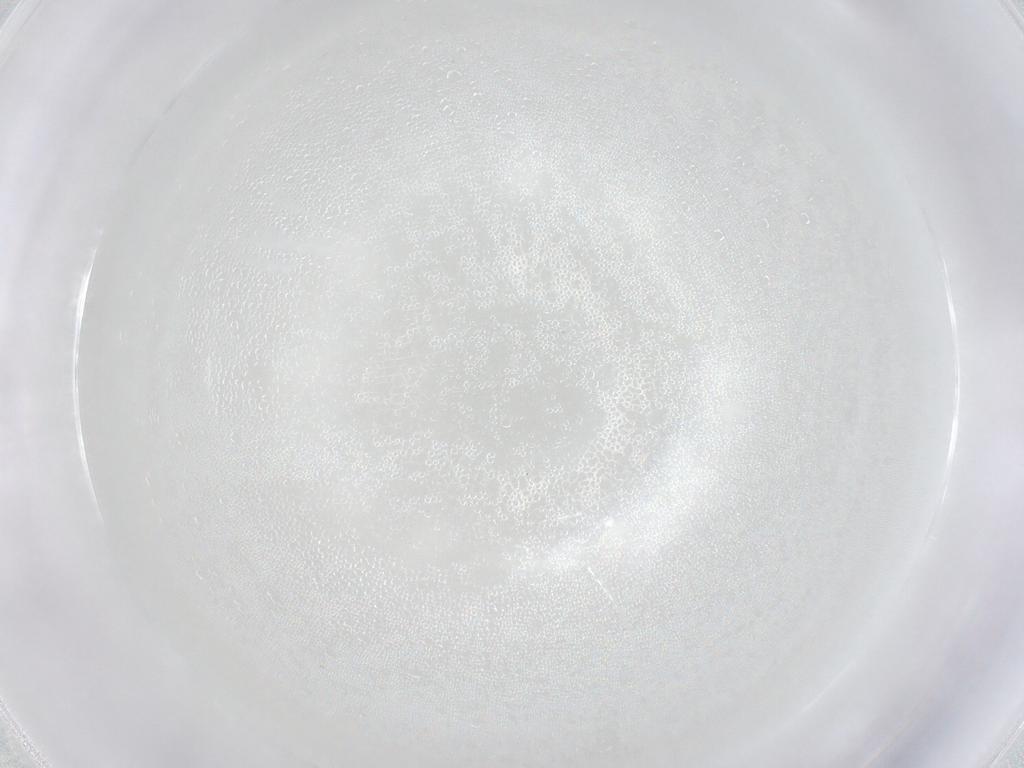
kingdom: Animalia
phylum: Arthropoda
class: Arachnida
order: Trombidiformes
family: Eupodidae
